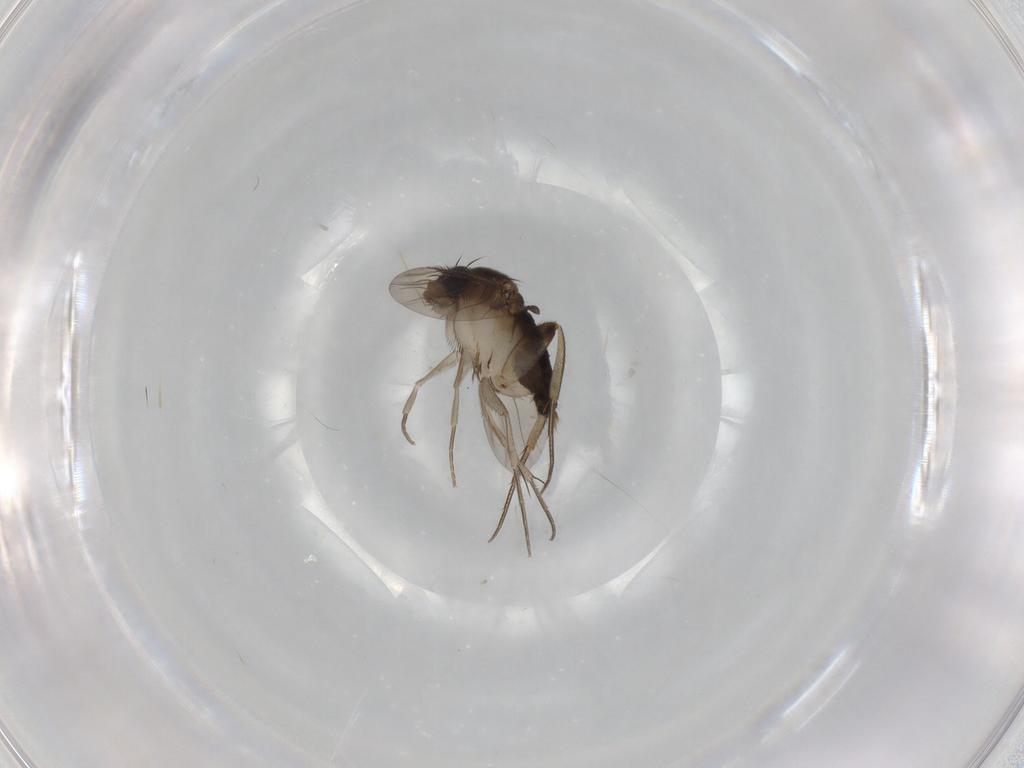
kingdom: Animalia
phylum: Arthropoda
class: Insecta
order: Diptera
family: Phoridae
